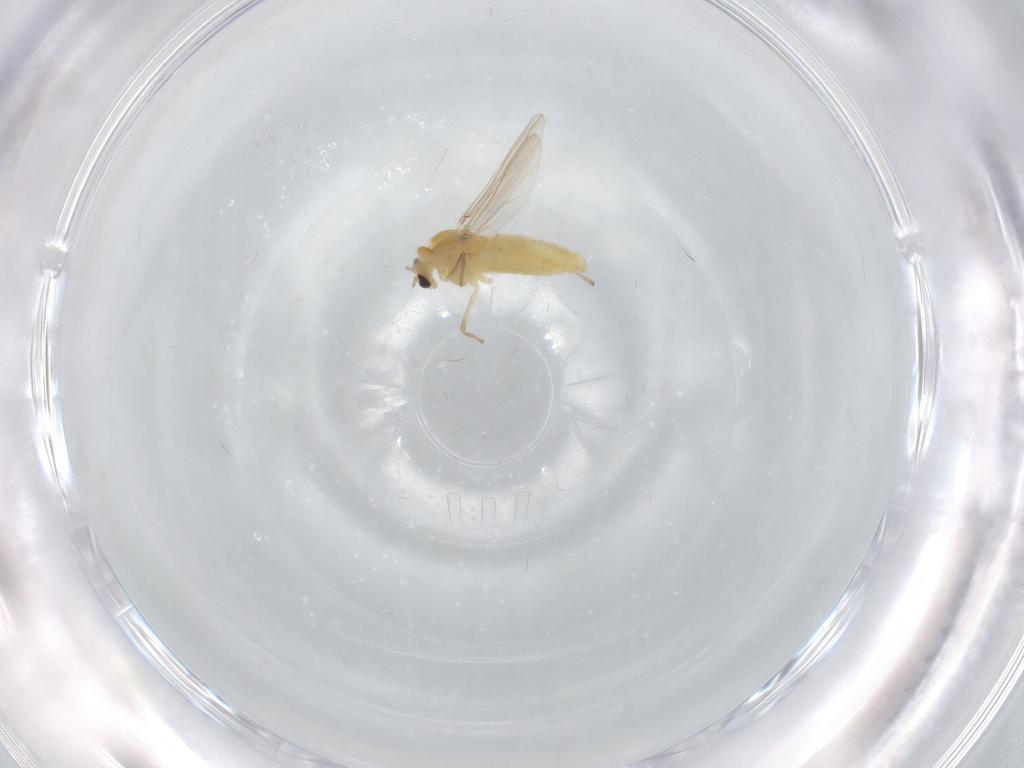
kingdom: Animalia
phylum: Arthropoda
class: Insecta
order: Diptera
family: Chironomidae
